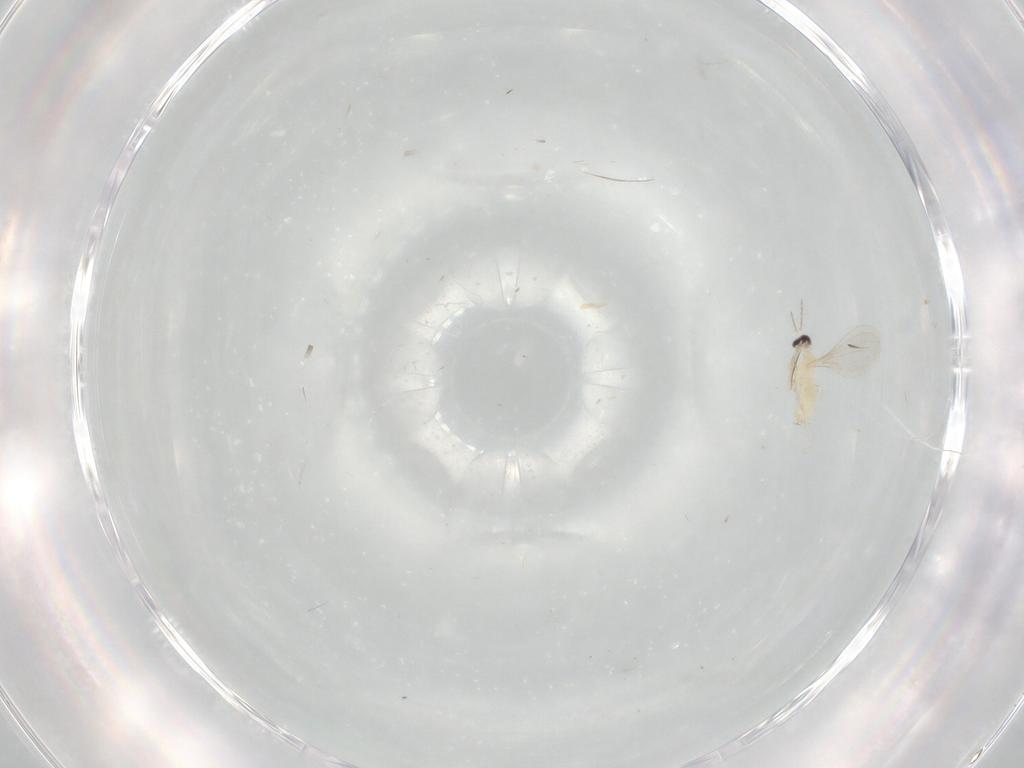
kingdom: Animalia
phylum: Arthropoda
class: Insecta
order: Diptera
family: Cecidomyiidae
